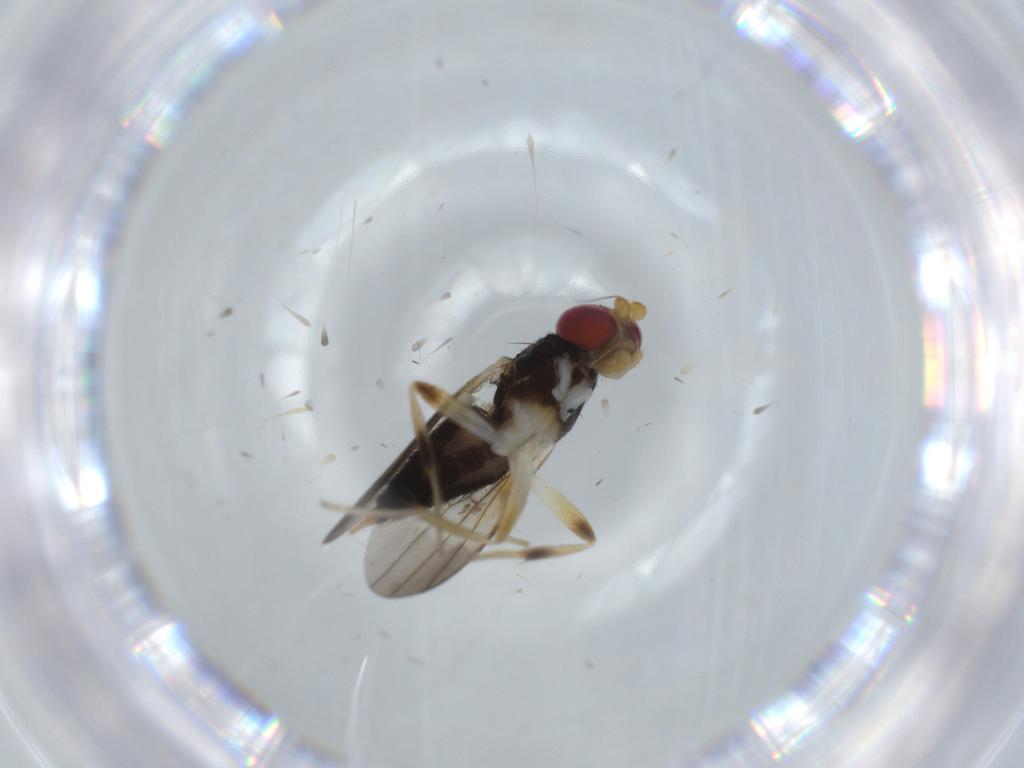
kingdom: Animalia
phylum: Arthropoda
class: Insecta
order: Diptera
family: Clusiidae
